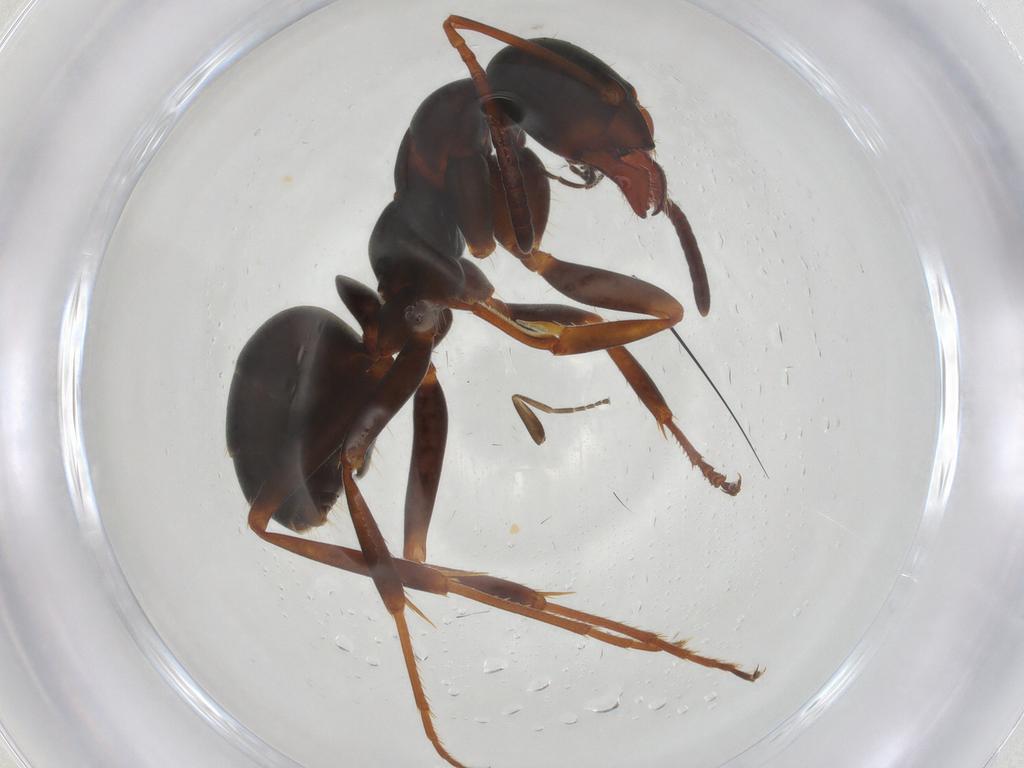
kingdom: Animalia
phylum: Arthropoda
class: Insecta
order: Hymenoptera
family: Formicidae
